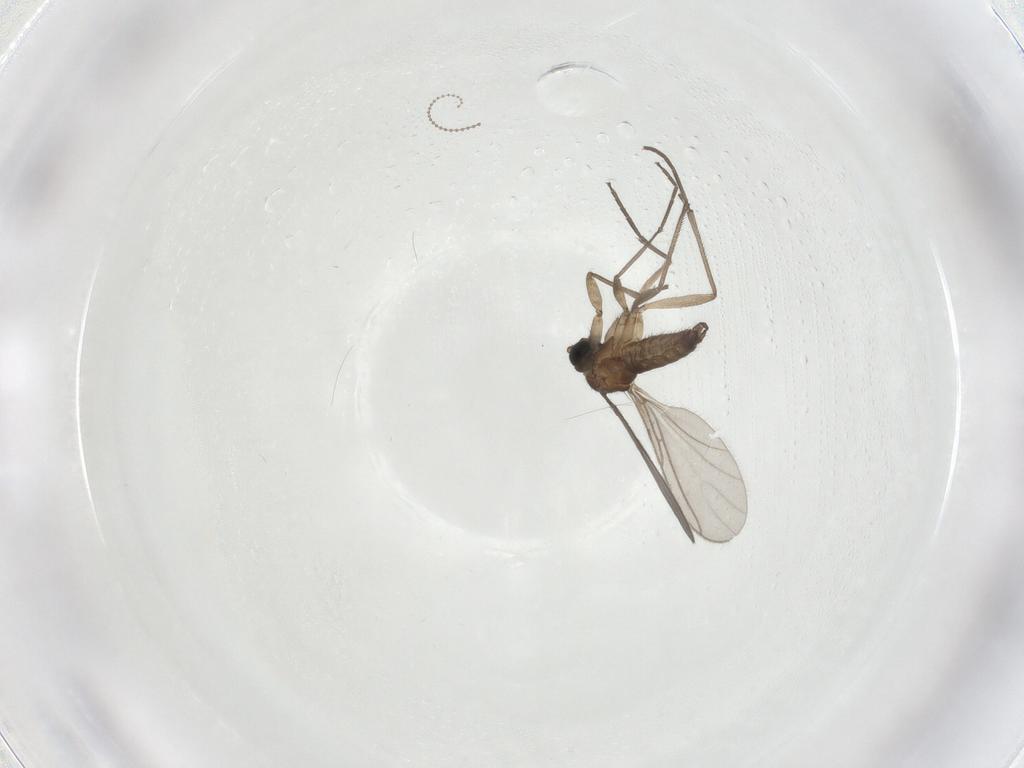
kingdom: Animalia
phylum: Arthropoda
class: Insecta
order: Diptera
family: Sciaridae
